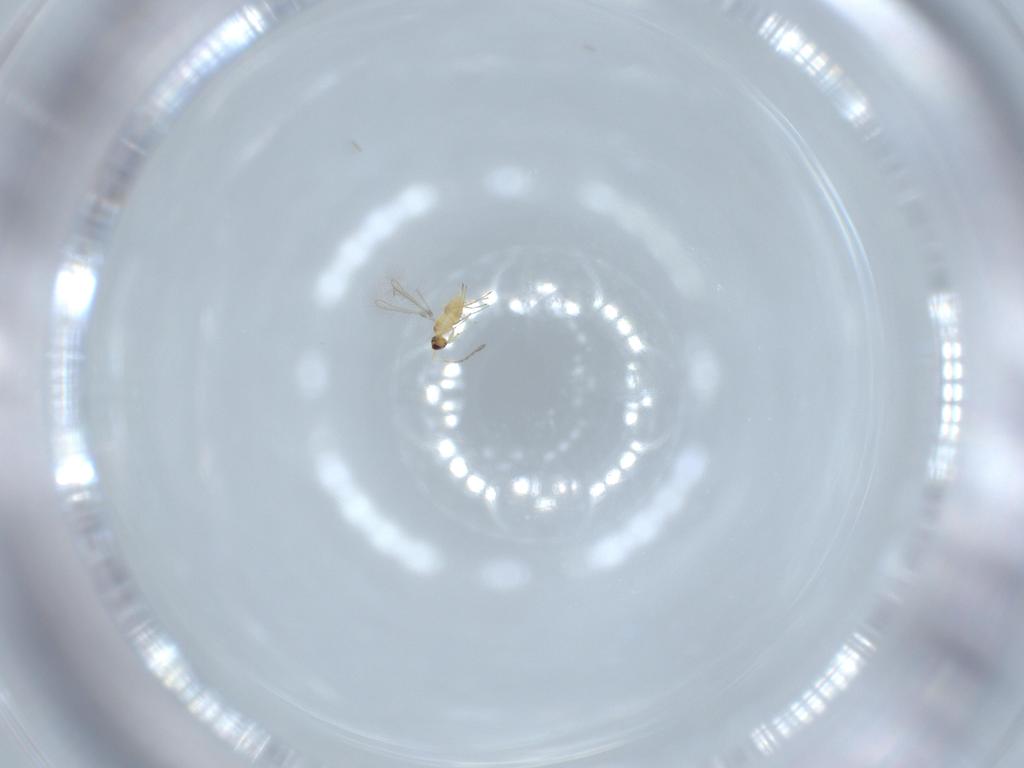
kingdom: Animalia
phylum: Arthropoda
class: Insecta
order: Hymenoptera
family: Mymaridae
